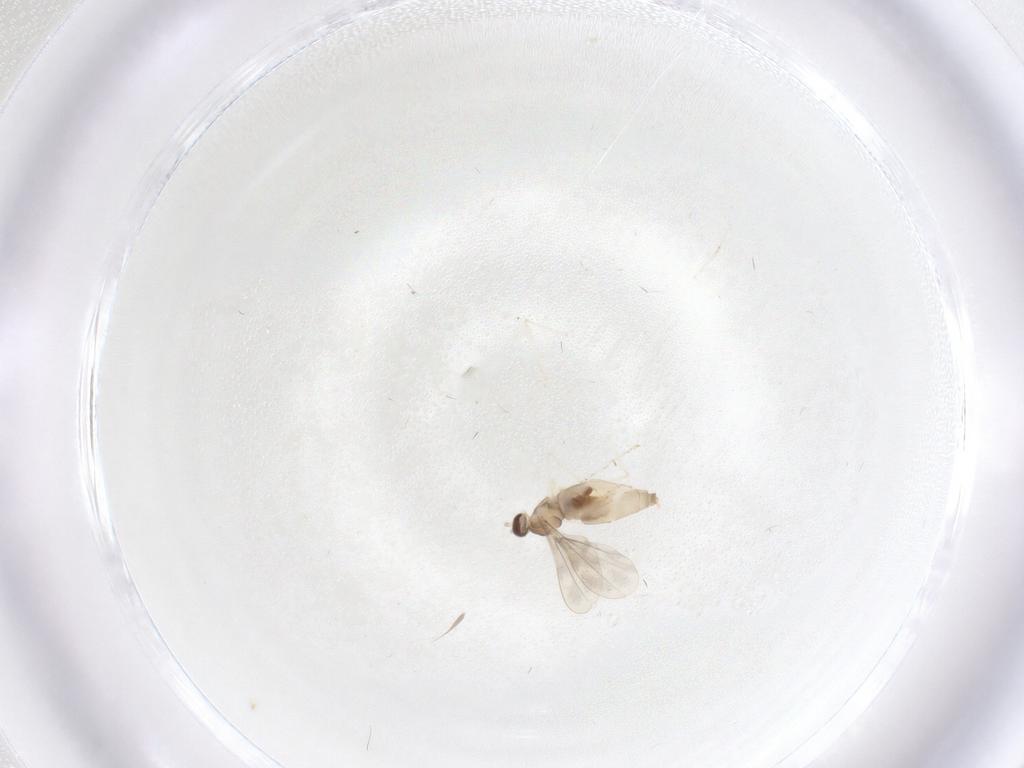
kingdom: Animalia
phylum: Arthropoda
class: Insecta
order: Diptera
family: Cecidomyiidae
